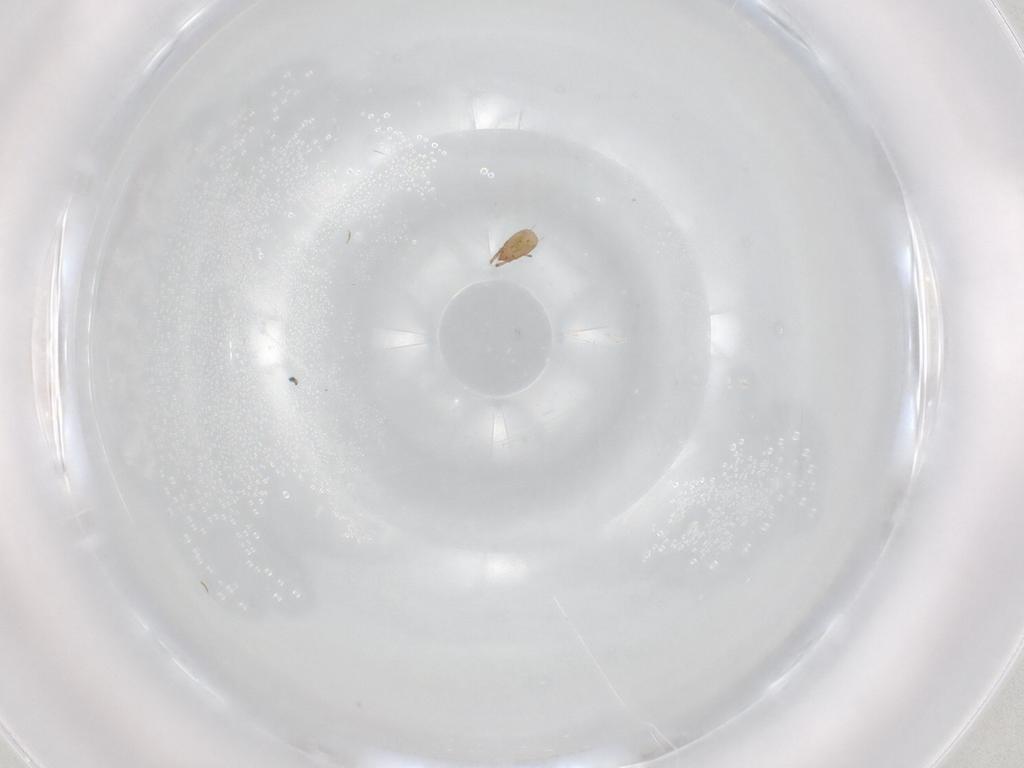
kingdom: Animalia
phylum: Arthropoda
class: Arachnida
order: Sarcoptiformes
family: Phenopelopidae
